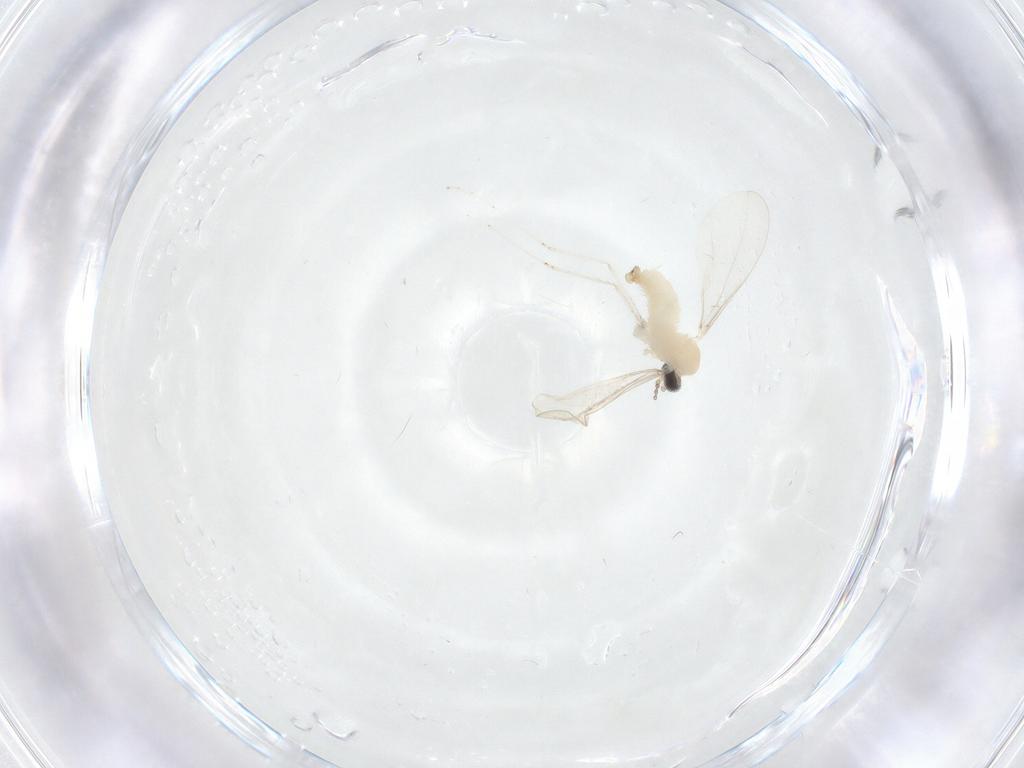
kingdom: Animalia
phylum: Arthropoda
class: Insecta
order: Diptera
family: Cecidomyiidae
